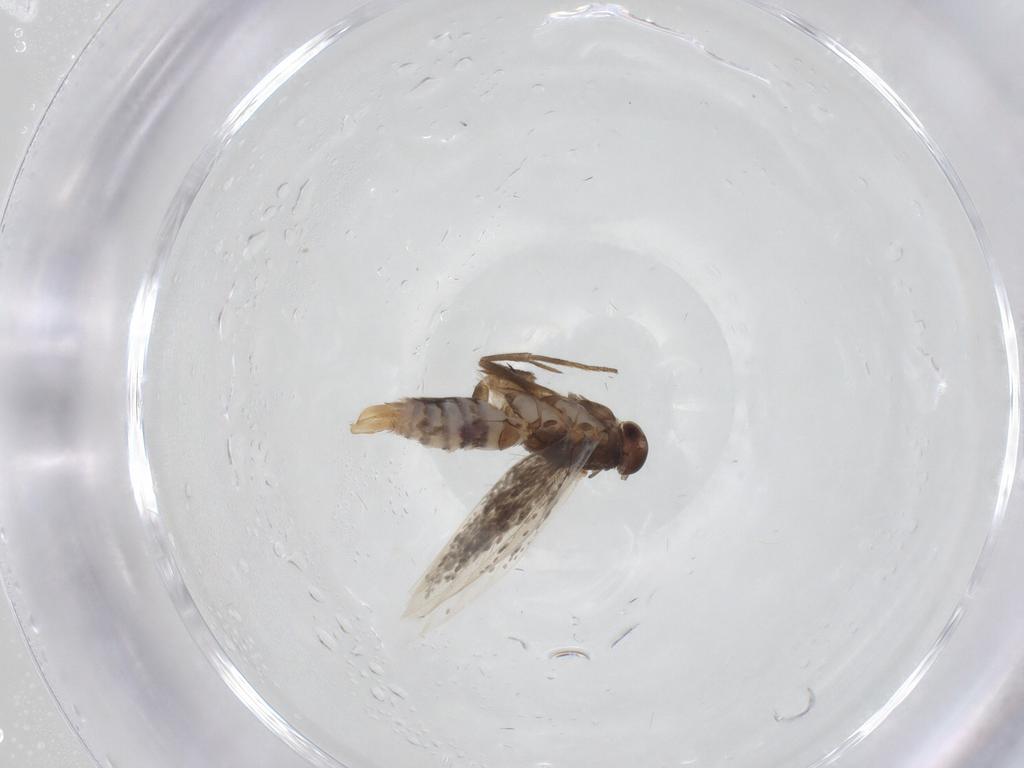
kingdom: Animalia
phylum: Arthropoda
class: Insecta
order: Lepidoptera
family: Elachistidae
